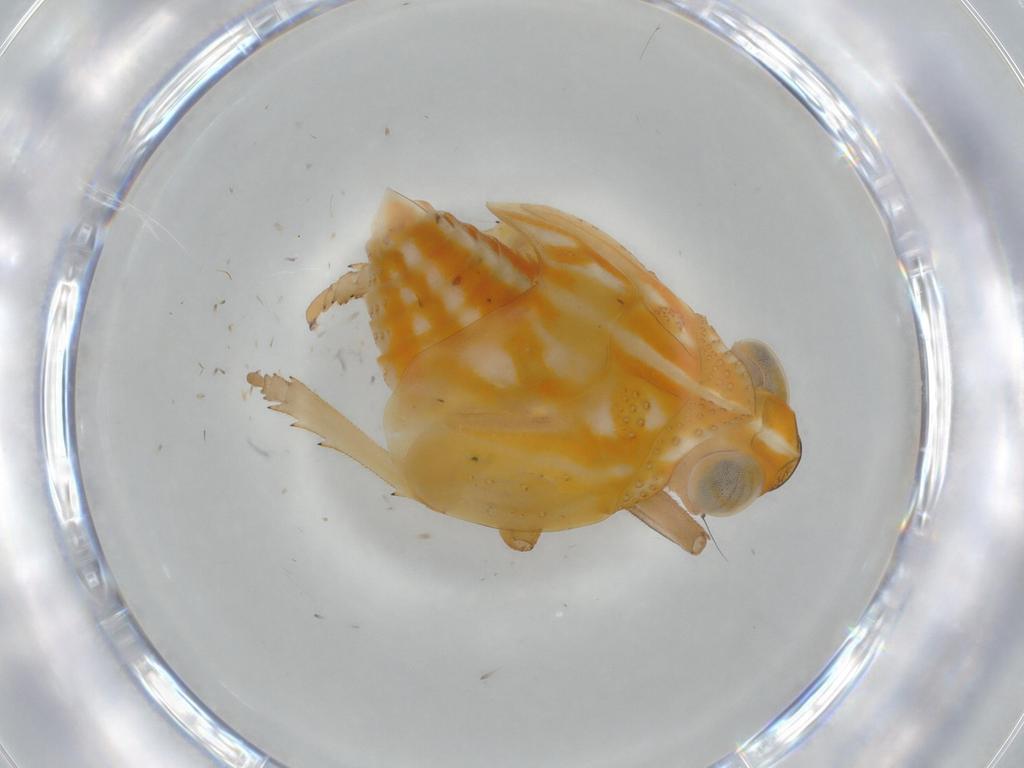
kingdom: Animalia
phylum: Arthropoda
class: Insecta
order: Hemiptera
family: Issidae
